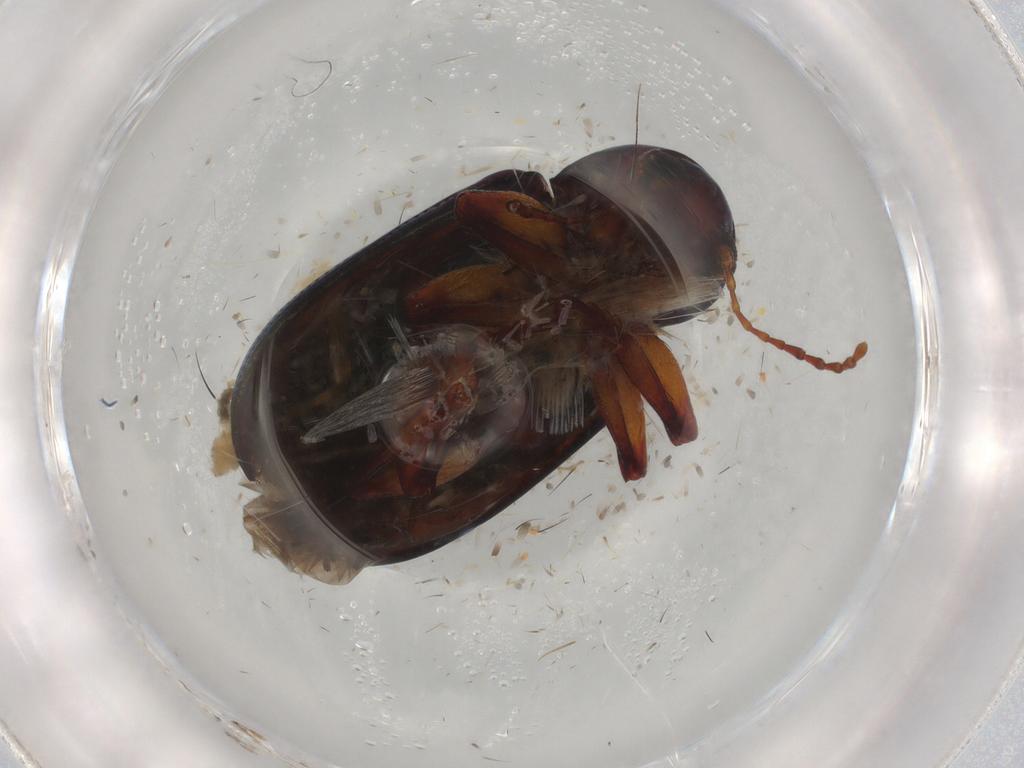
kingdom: Animalia
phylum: Arthropoda
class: Insecta
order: Coleoptera
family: Chrysomelidae
